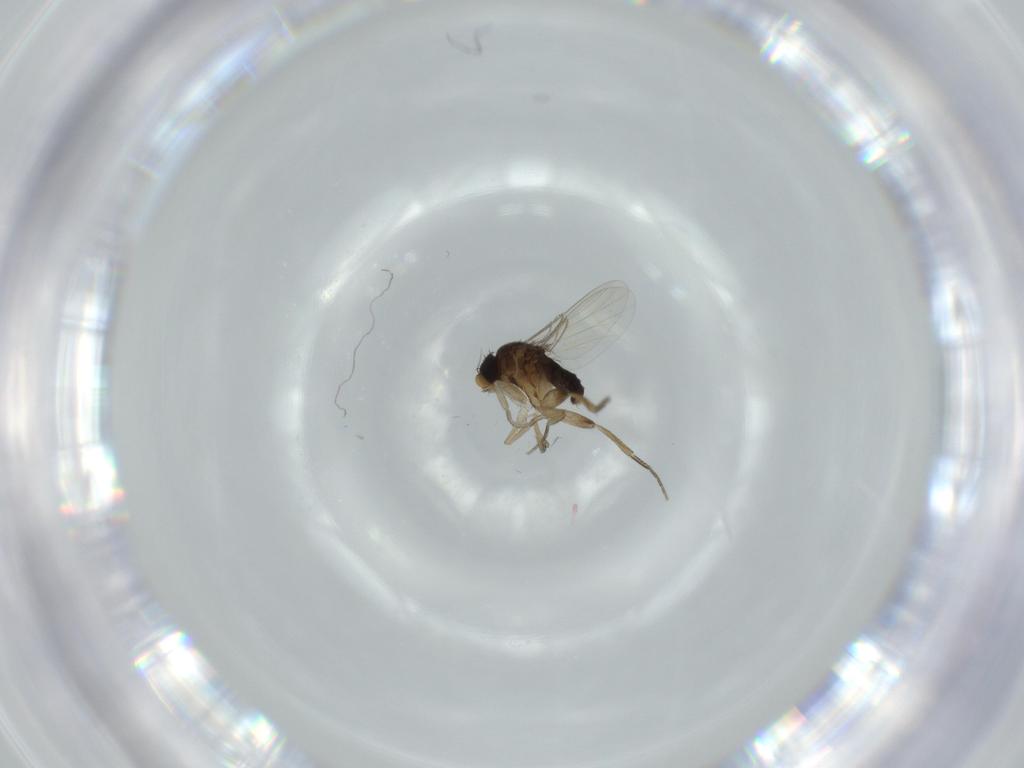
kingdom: Animalia
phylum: Arthropoda
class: Insecta
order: Diptera
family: Phoridae
